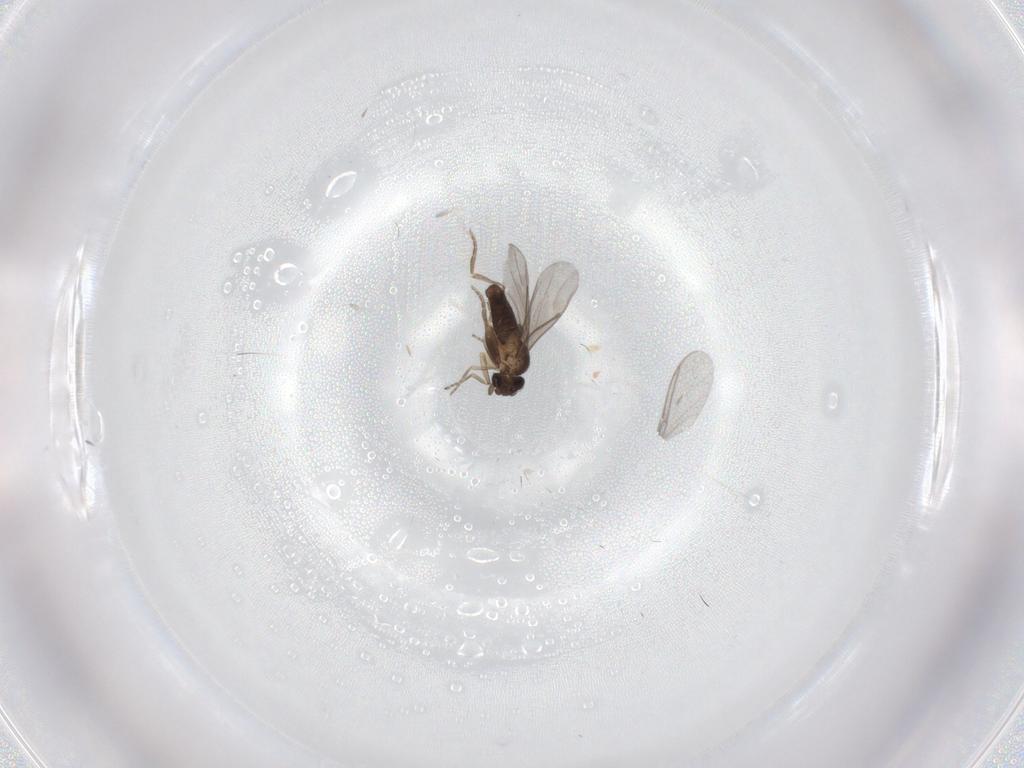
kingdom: Animalia
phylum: Arthropoda
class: Insecta
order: Diptera
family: Sciaridae
